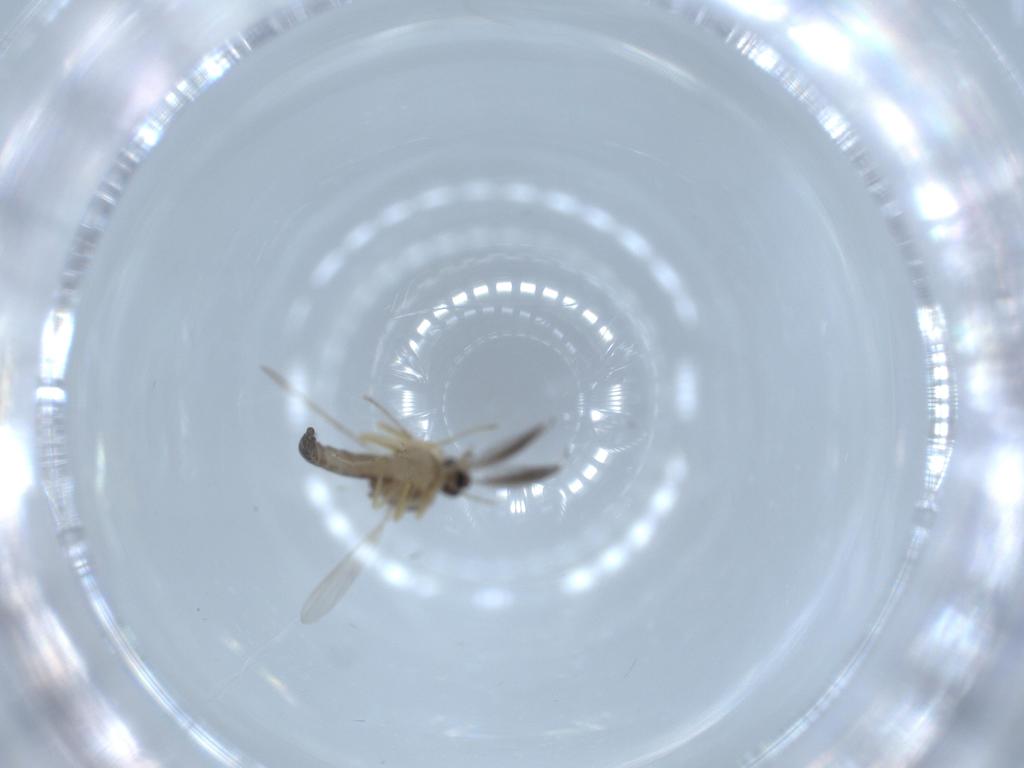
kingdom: Animalia
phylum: Arthropoda
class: Insecta
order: Diptera
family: Ceratopogonidae
